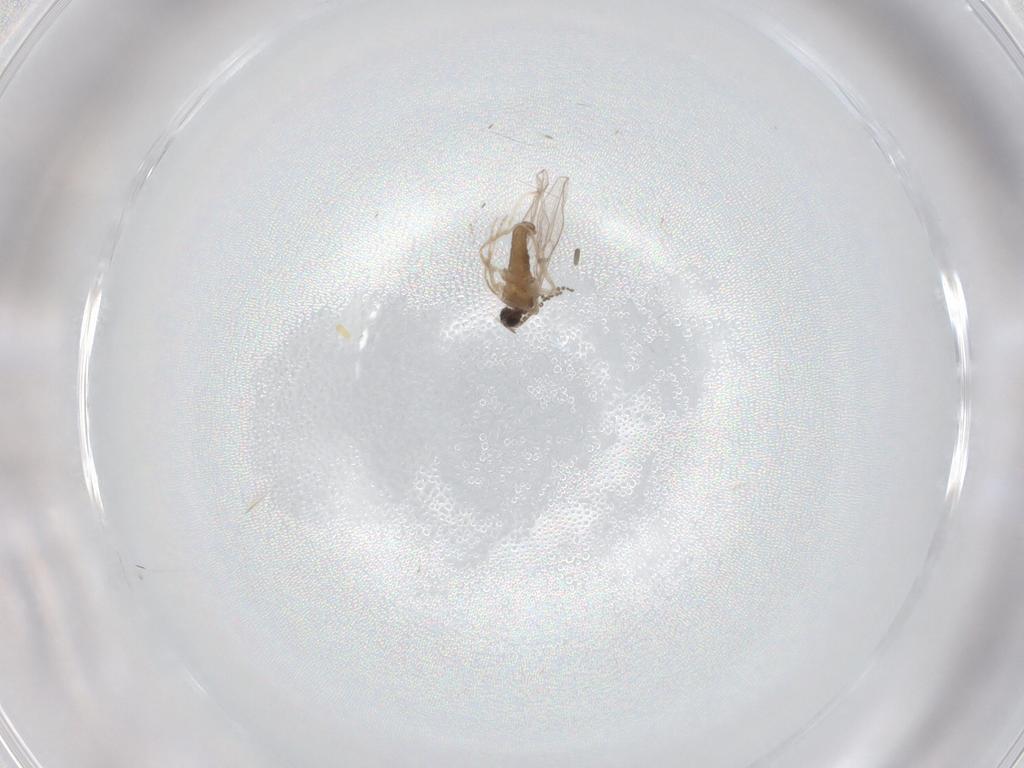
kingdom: Animalia
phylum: Arthropoda
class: Insecta
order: Diptera
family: Cecidomyiidae
